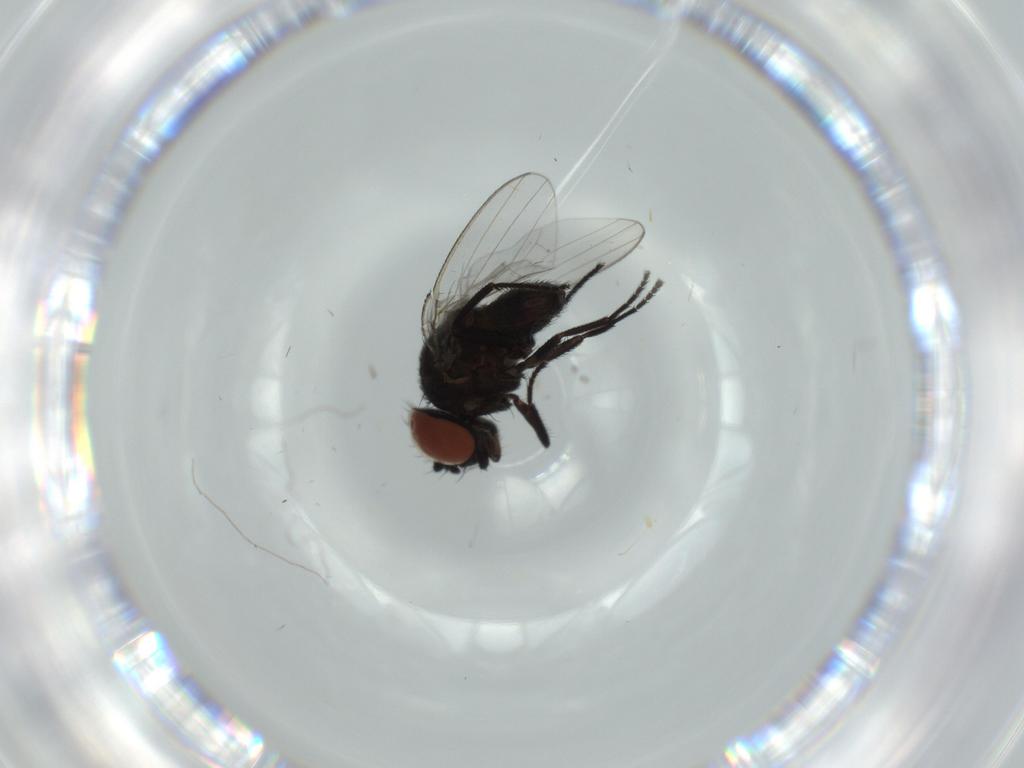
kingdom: Animalia
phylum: Arthropoda
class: Insecta
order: Diptera
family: Milichiidae
